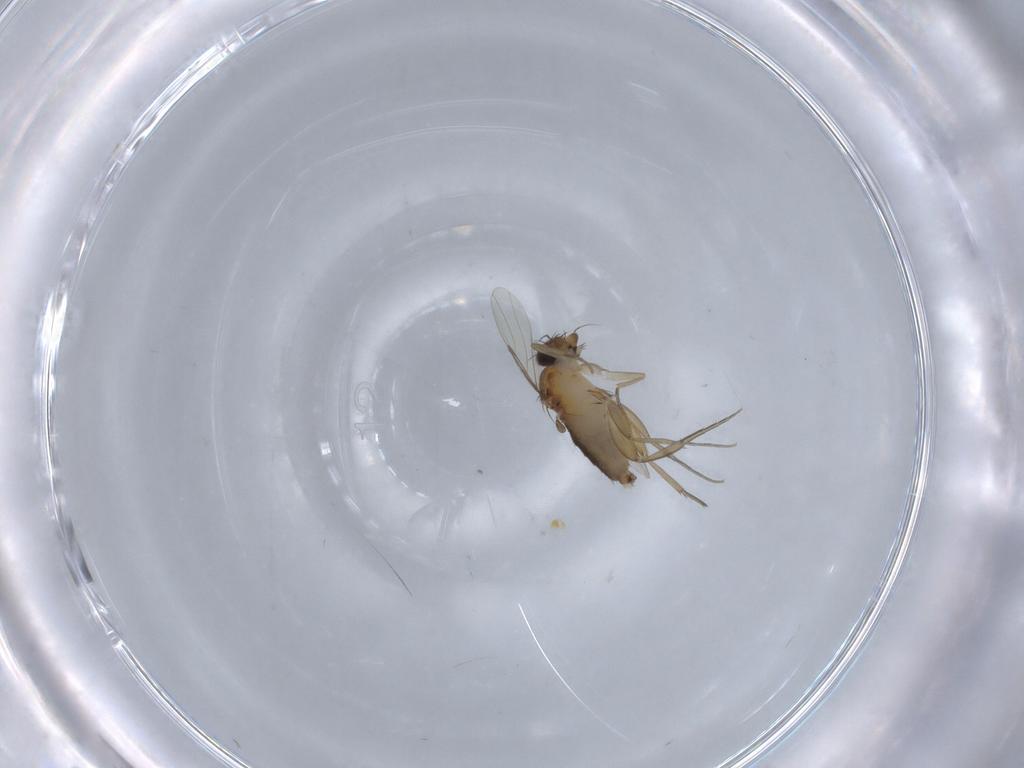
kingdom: Animalia
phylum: Arthropoda
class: Insecta
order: Diptera
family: Phoridae
